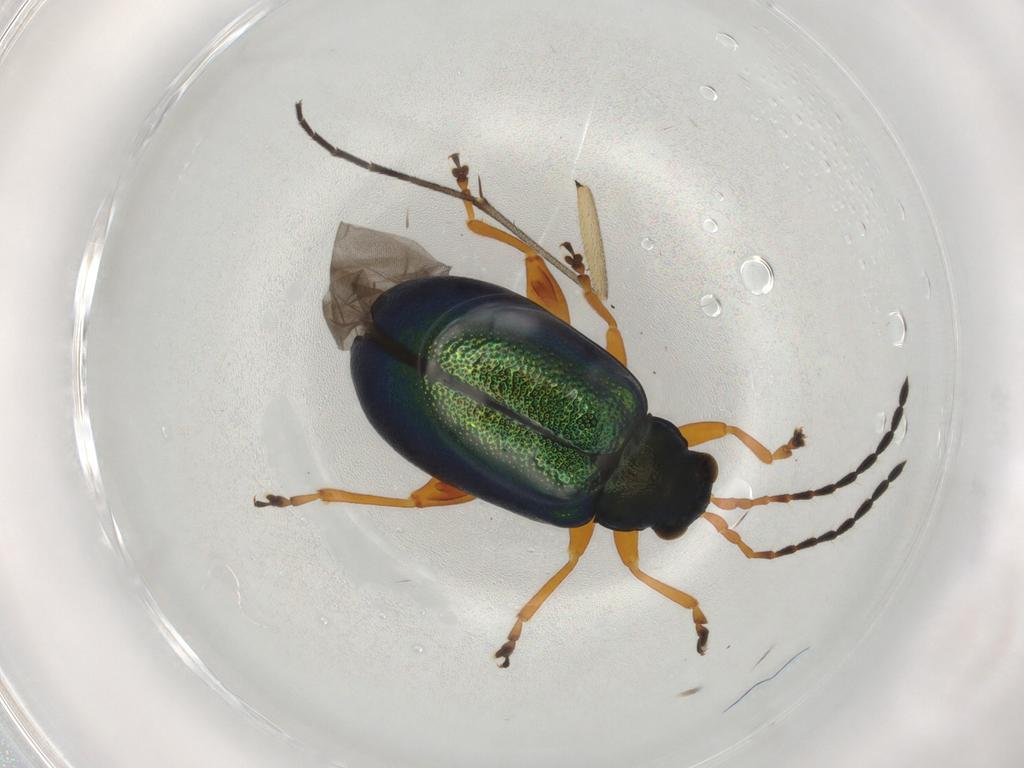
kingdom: Animalia
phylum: Arthropoda
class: Insecta
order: Coleoptera
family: Chrysomelidae
